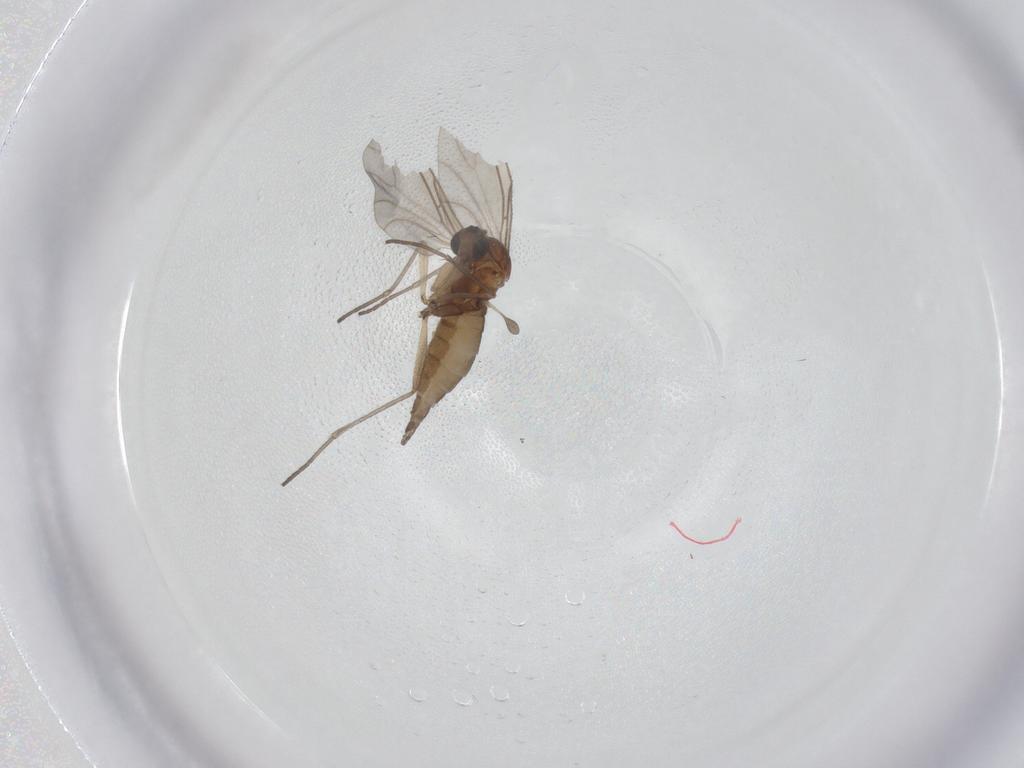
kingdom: Animalia
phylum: Arthropoda
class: Insecta
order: Diptera
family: Sciaridae
